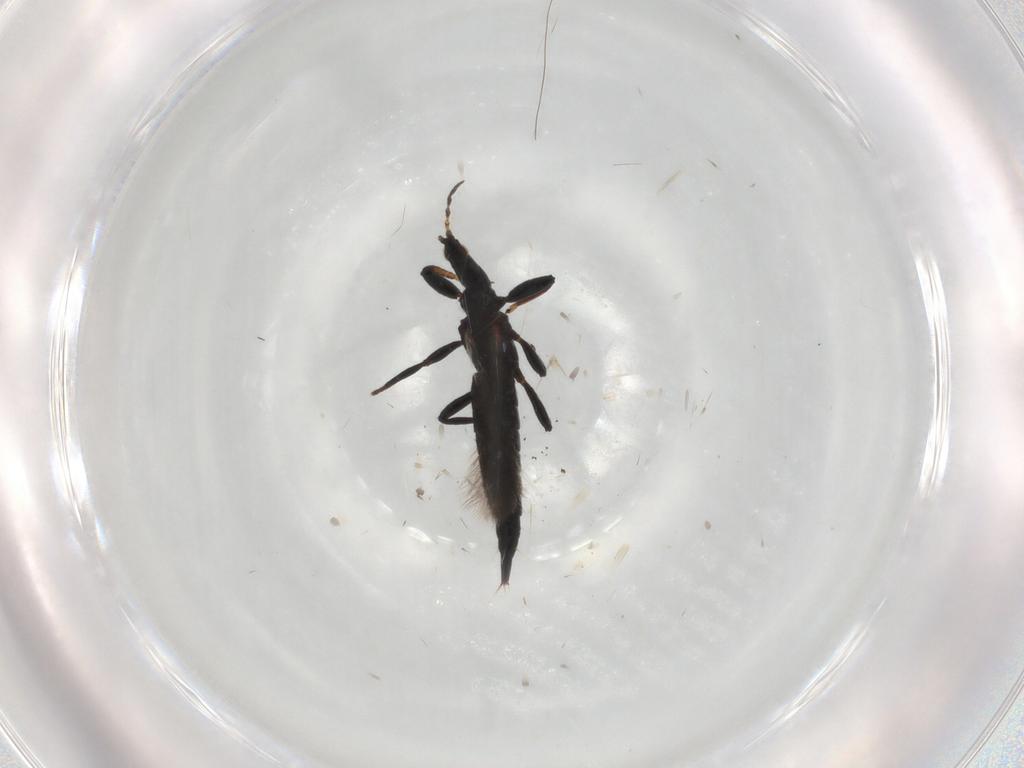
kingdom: Animalia
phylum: Arthropoda
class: Insecta
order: Thysanoptera
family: Phlaeothripidae
